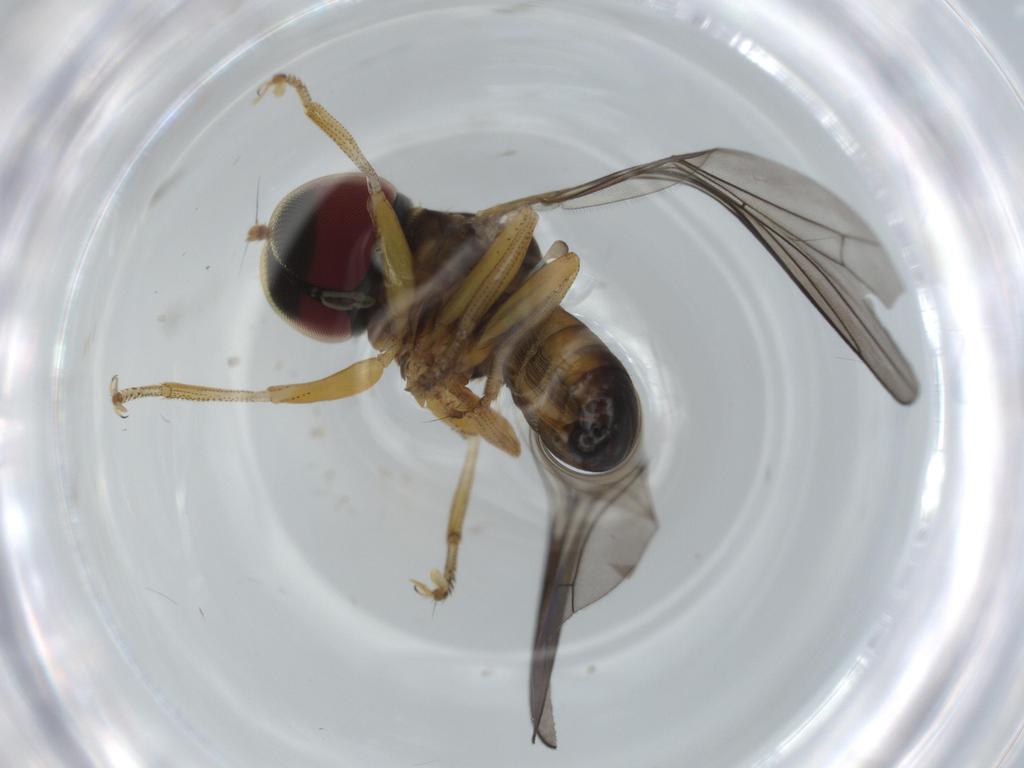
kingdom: Animalia
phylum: Arthropoda
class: Insecta
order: Diptera
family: Pipunculidae
